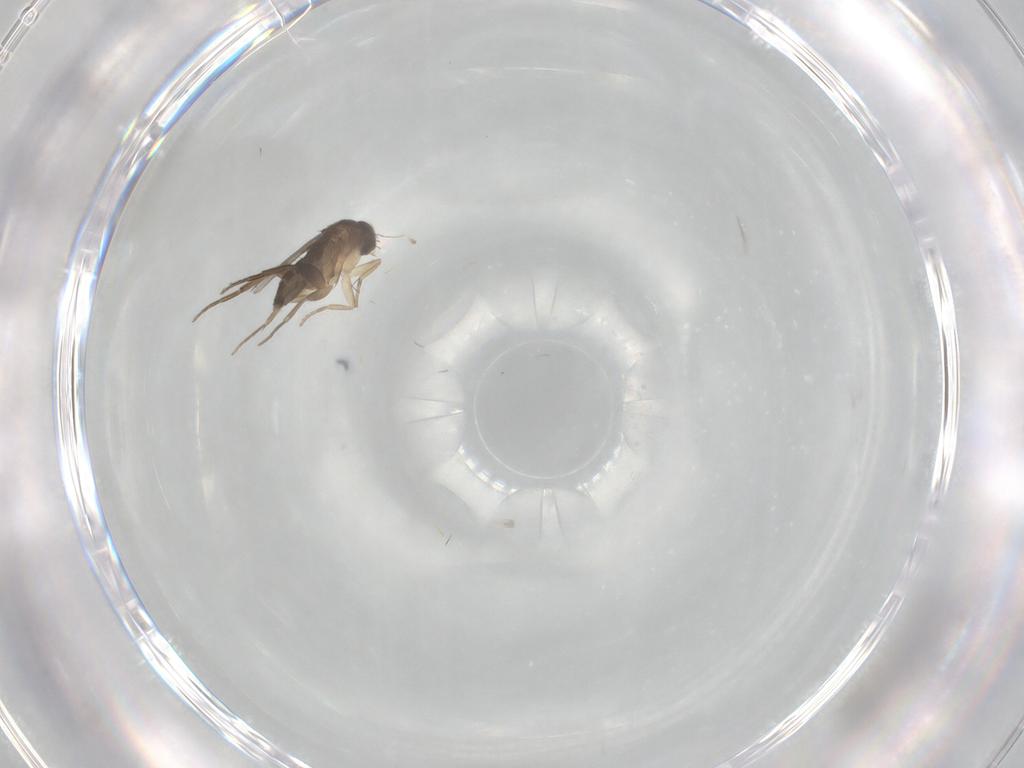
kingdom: Animalia
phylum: Arthropoda
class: Insecta
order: Diptera
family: Phoridae
